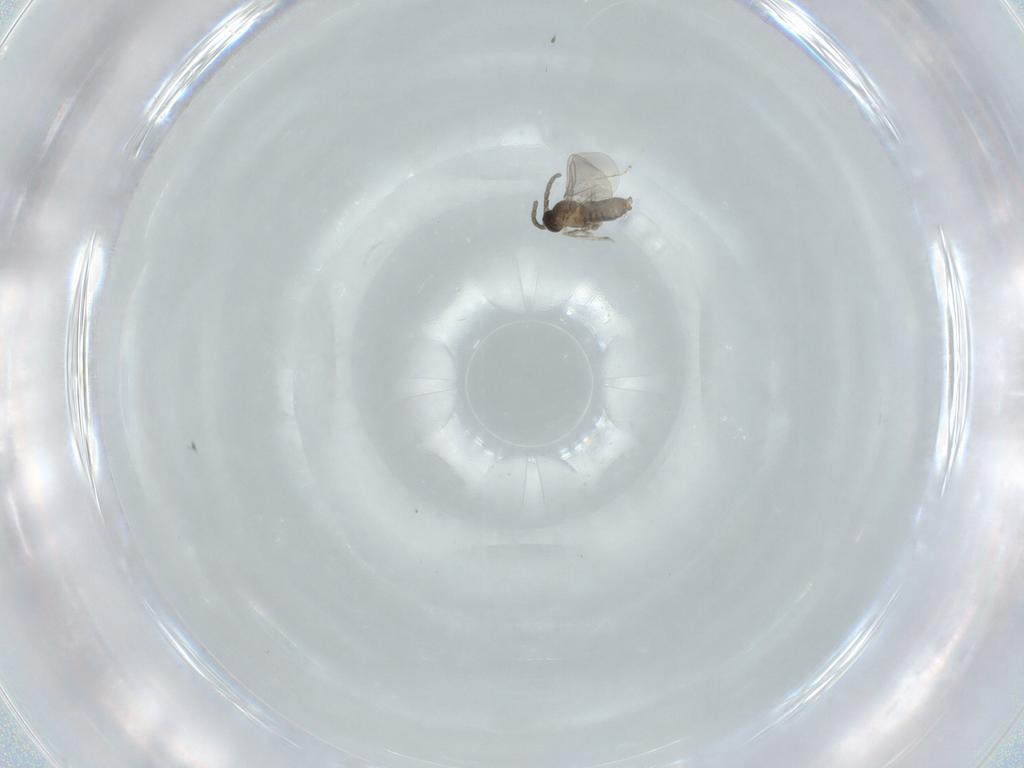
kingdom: Animalia
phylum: Arthropoda
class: Insecta
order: Diptera
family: Cecidomyiidae
